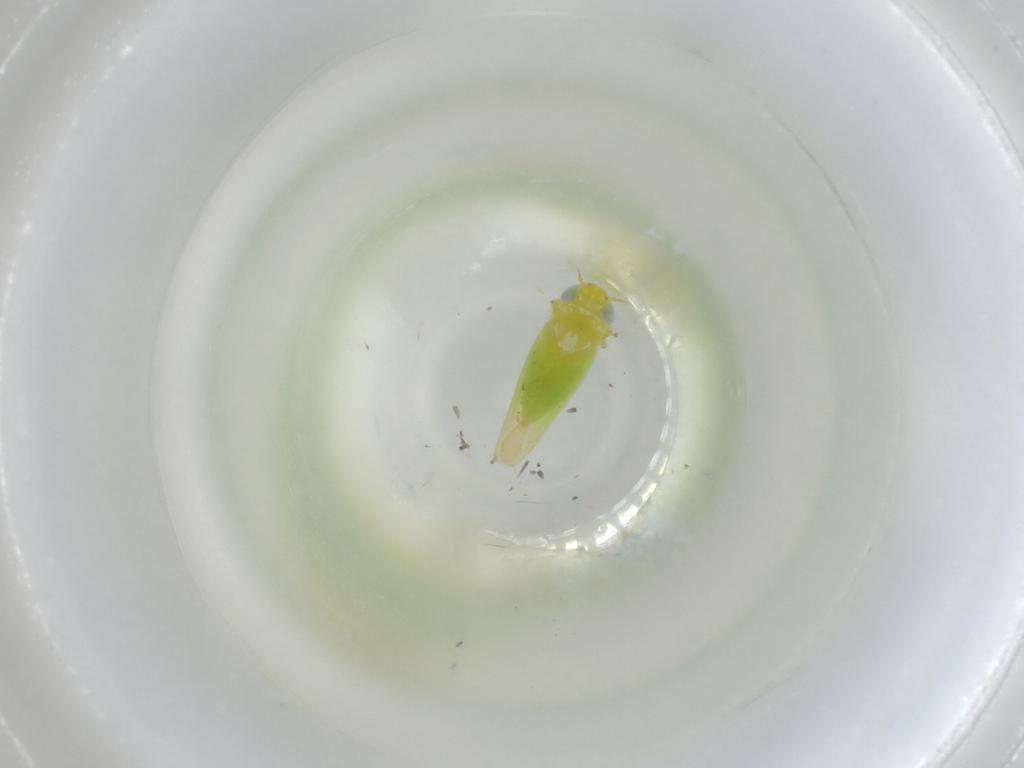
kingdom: Animalia
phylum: Arthropoda
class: Insecta
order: Hemiptera
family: Cicadellidae
